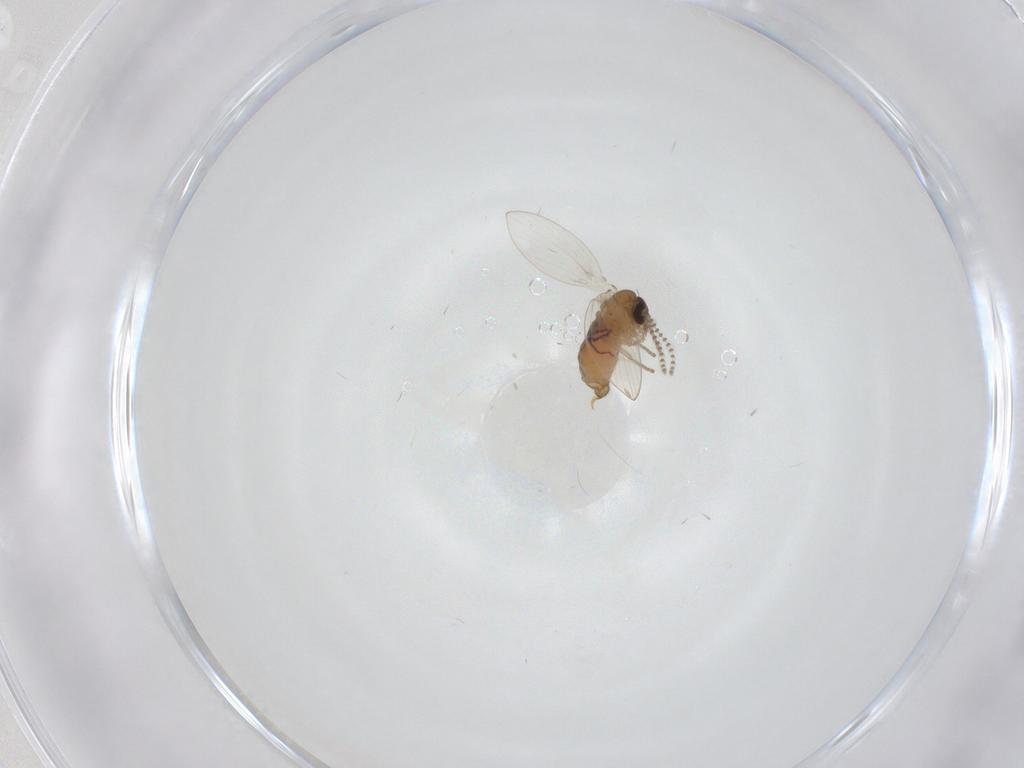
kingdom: Animalia
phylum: Arthropoda
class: Insecta
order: Diptera
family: Psychodidae
